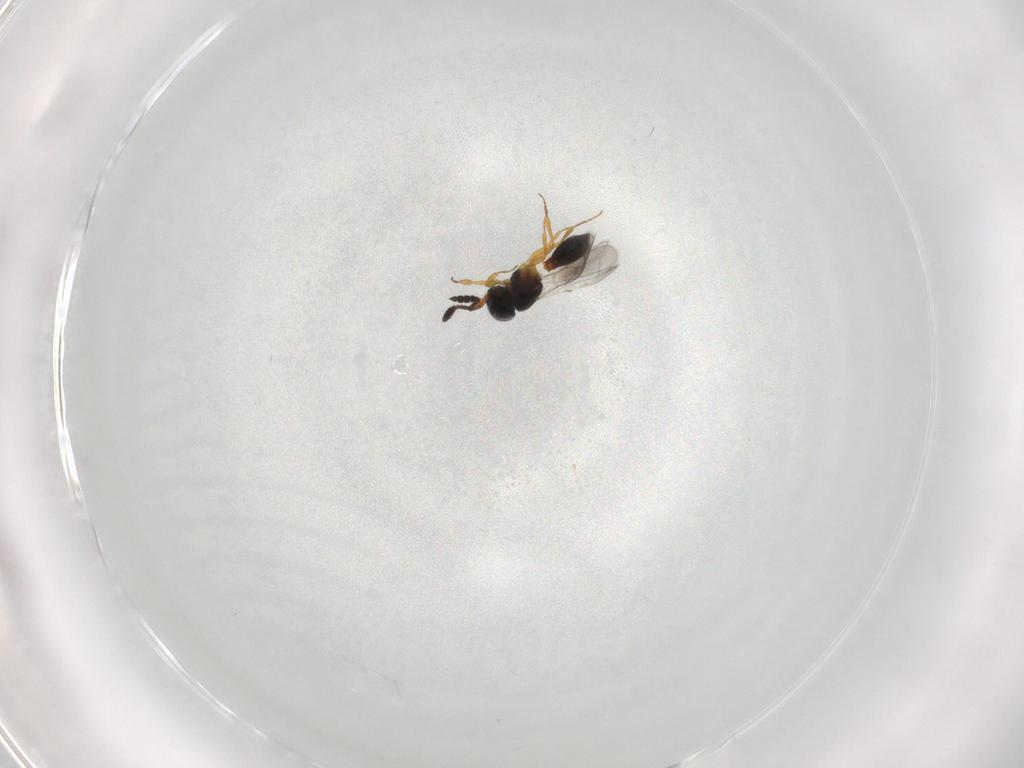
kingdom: Animalia
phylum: Arthropoda
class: Insecta
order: Hymenoptera
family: Scelionidae
